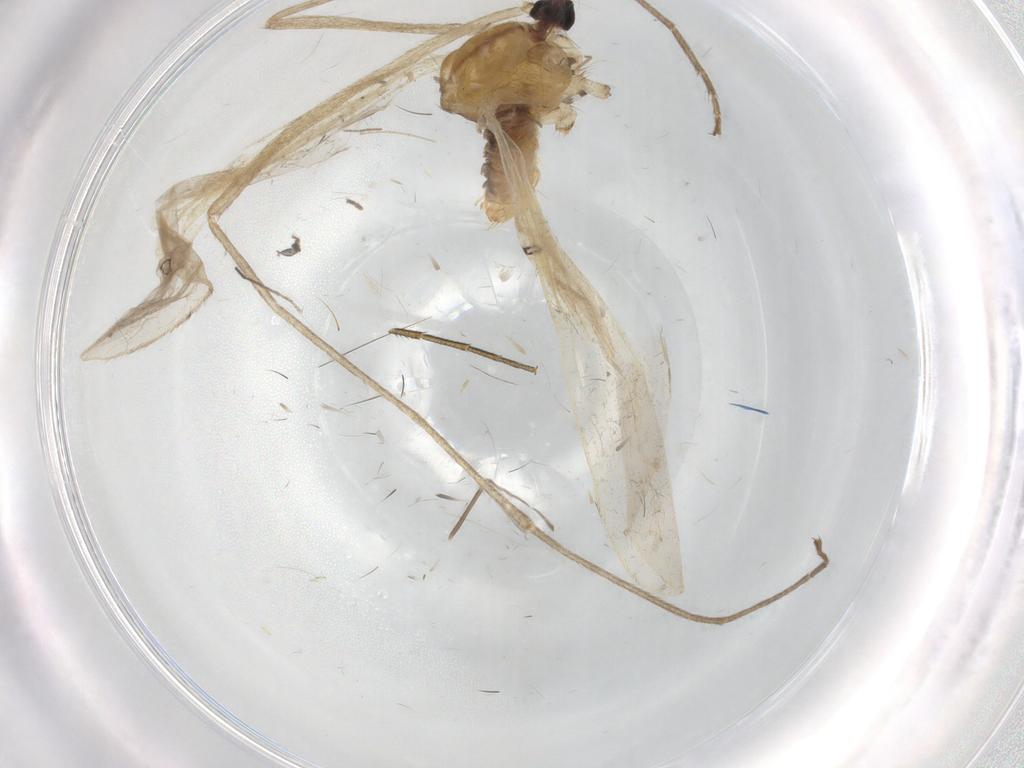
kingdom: Animalia
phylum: Arthropoda
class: Insecta
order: Diptera
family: Limoniidae
